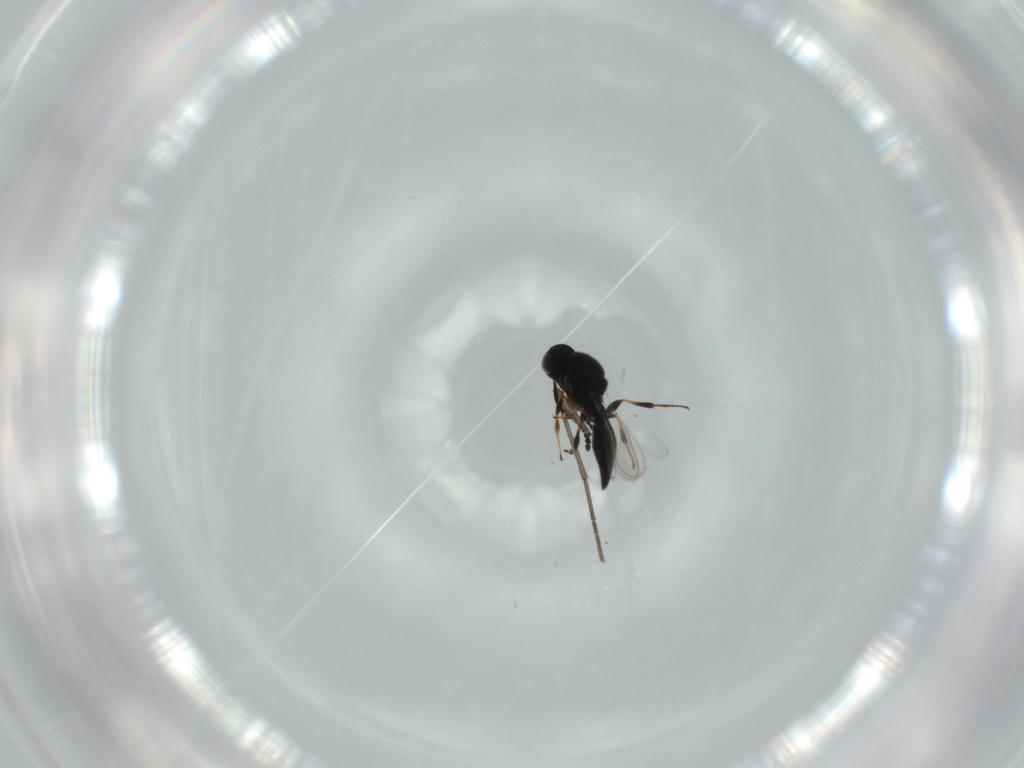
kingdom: Animalia
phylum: Arthropoda
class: Insecta
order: Hymenoptera
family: Platygastridae
